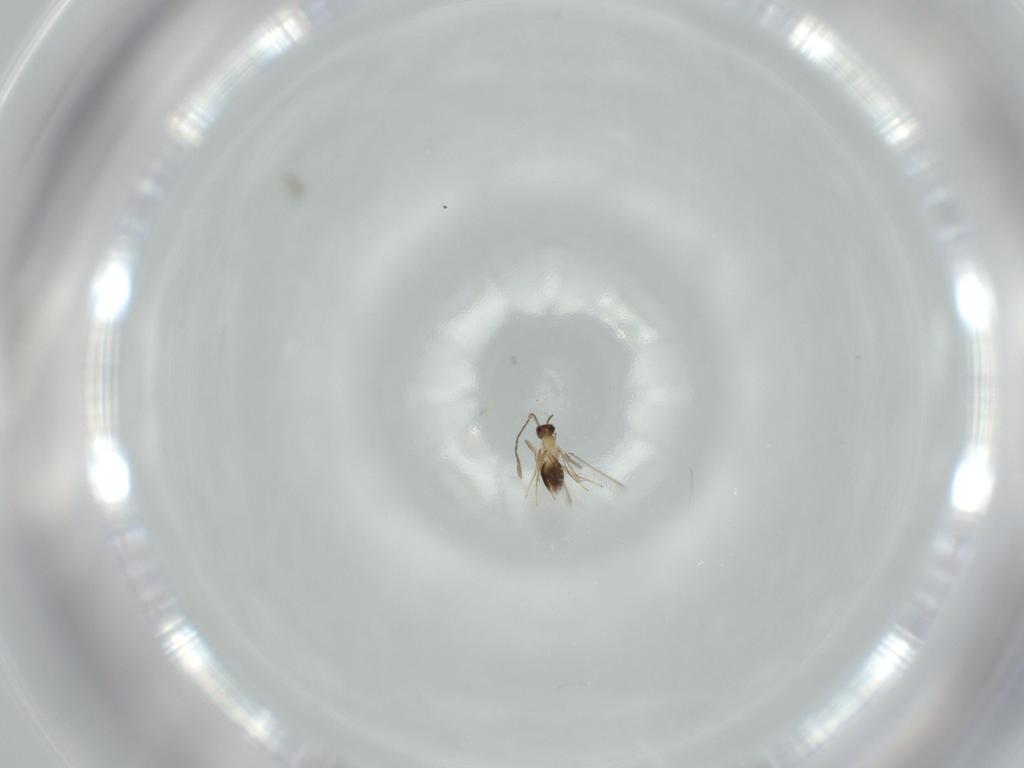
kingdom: Animalia
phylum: Arthropoda
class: Insecta
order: Hymenoptera
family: Mymaridae
